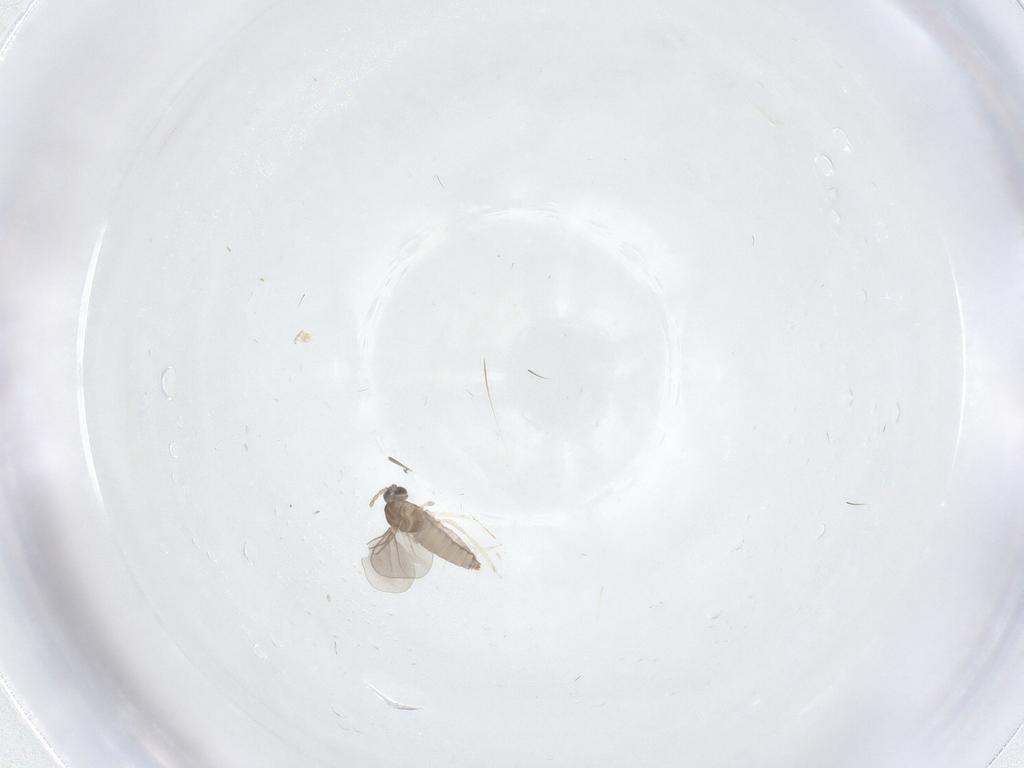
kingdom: Animalia
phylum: Arthropoda
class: Insecta
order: Diptera
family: Mycetophilidae
